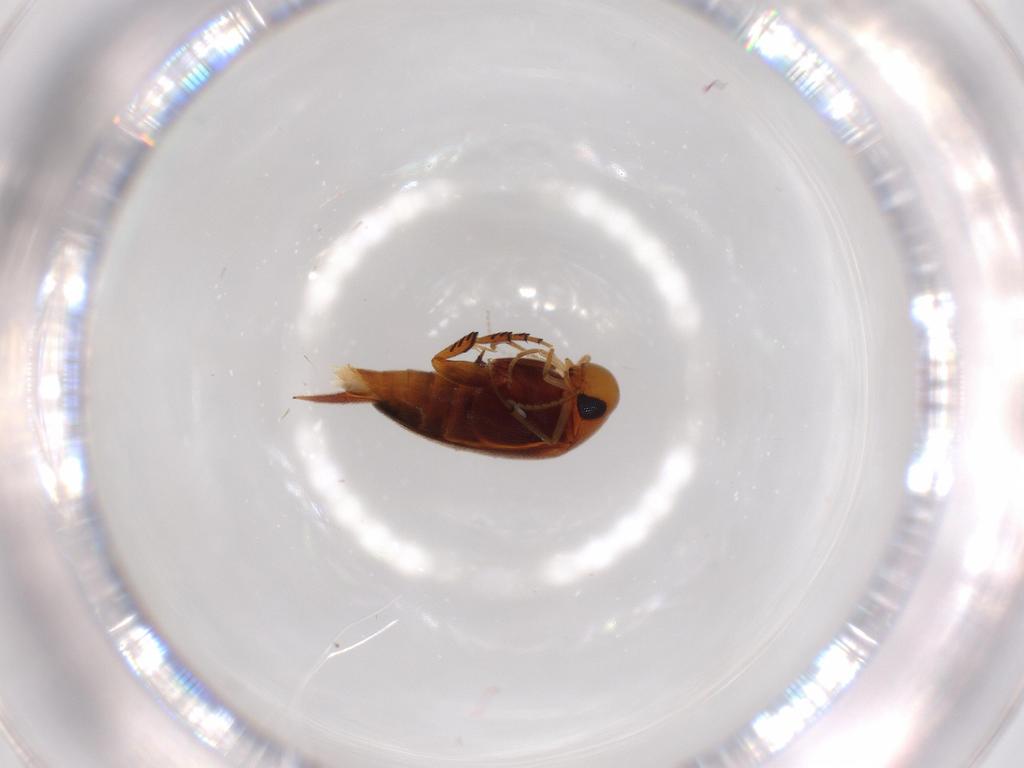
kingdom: Animalia
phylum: Arthropoda
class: Insecta
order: Coleoptera
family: Mordellidae
